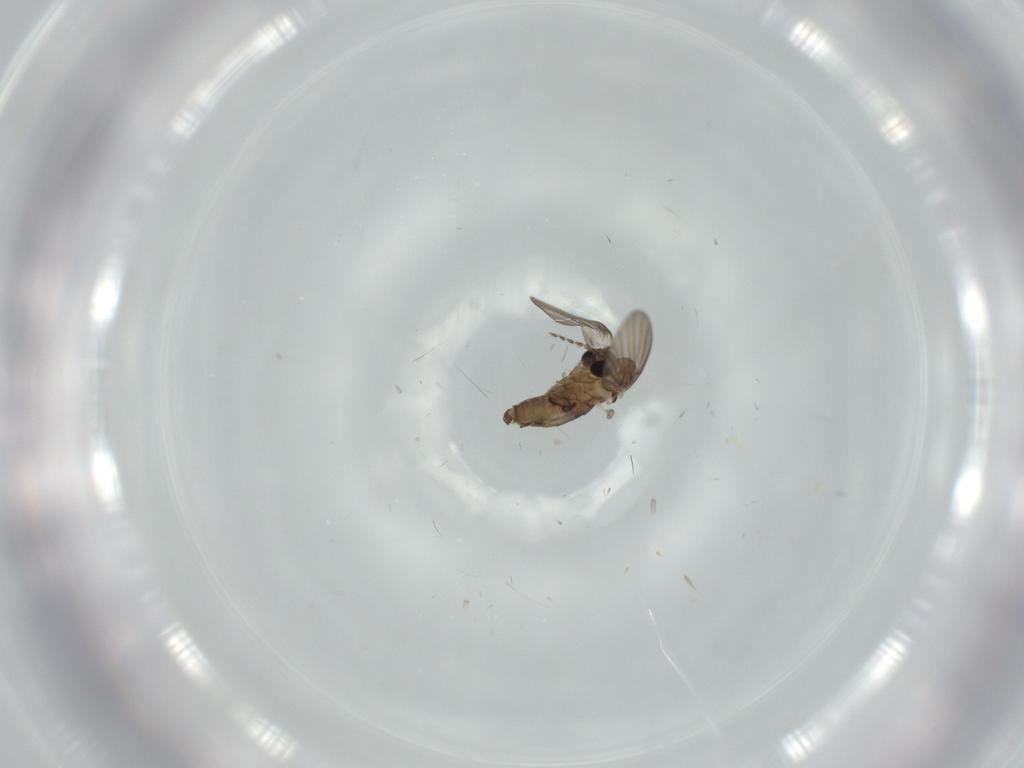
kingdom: Animalia
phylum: Arthropoda
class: Insecta
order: Diptera
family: Psychodidae
